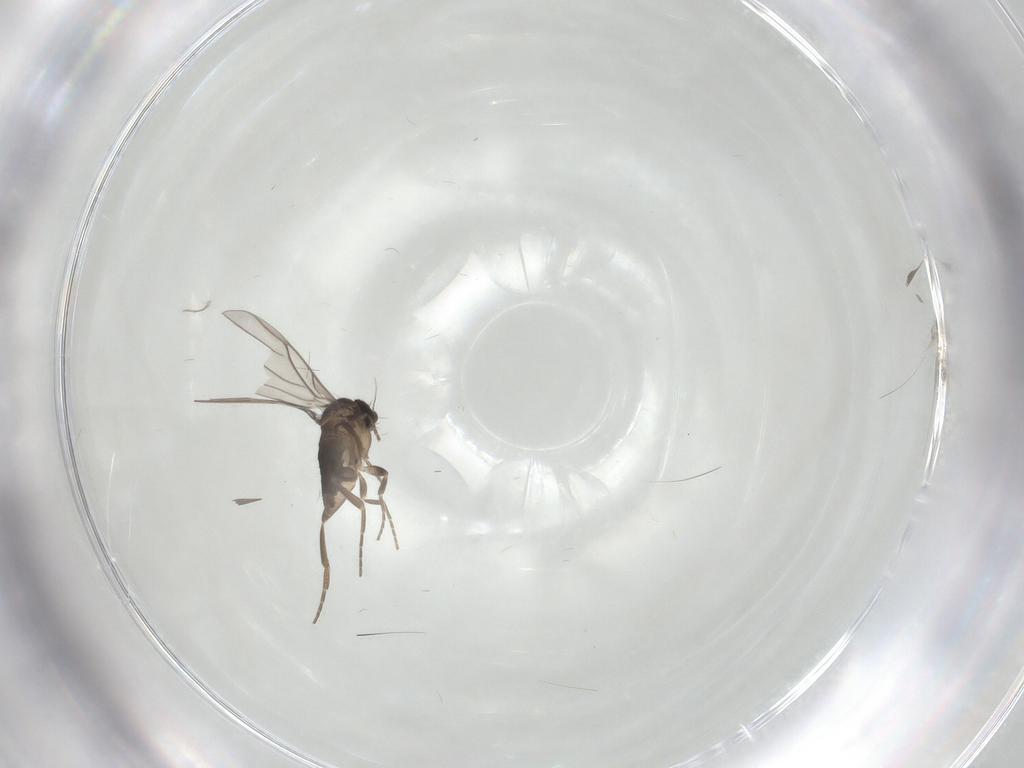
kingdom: Animalia
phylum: Arthropoda
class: Insecta
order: Diptera
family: Phoridae
